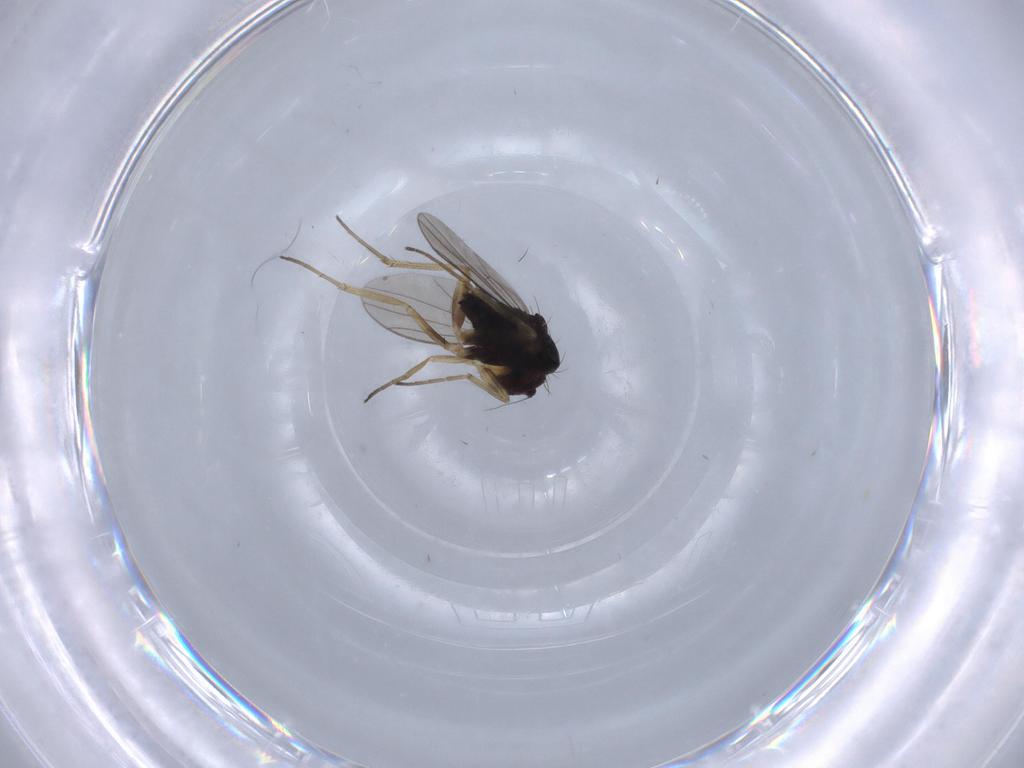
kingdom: Animalia
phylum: Arthropoda
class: Insecta
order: Diptera
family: Dolichopodidae
